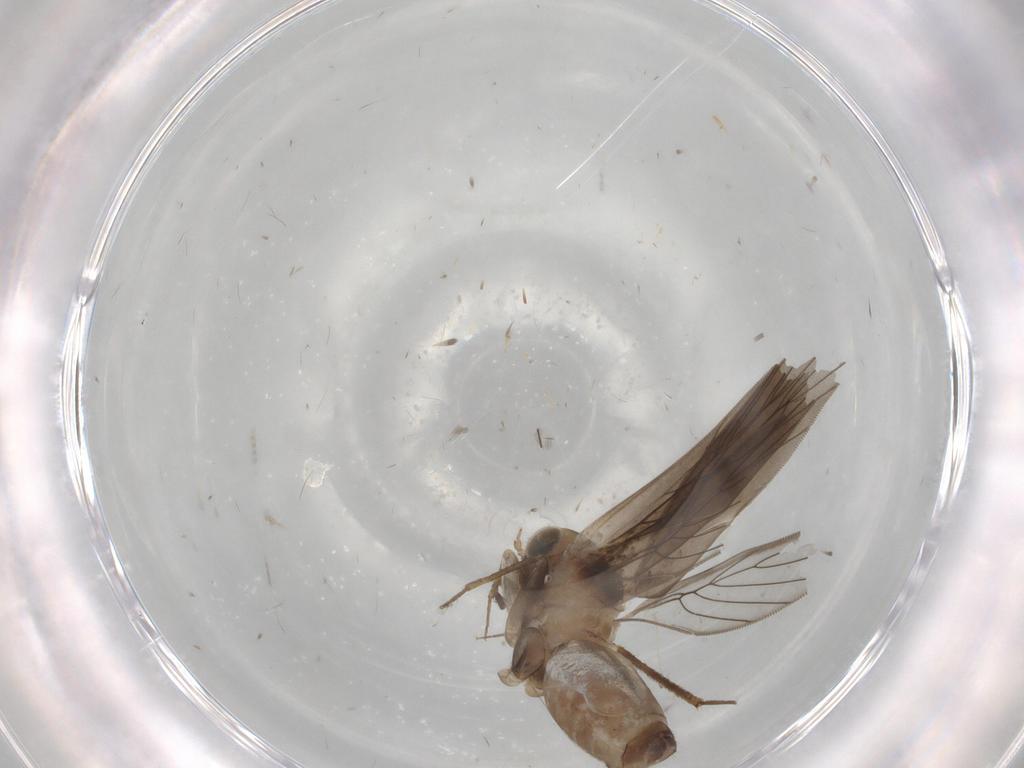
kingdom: Animalia
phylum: Arthropoda
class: Insecta
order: Psocodea
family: Lepidopsocidae
